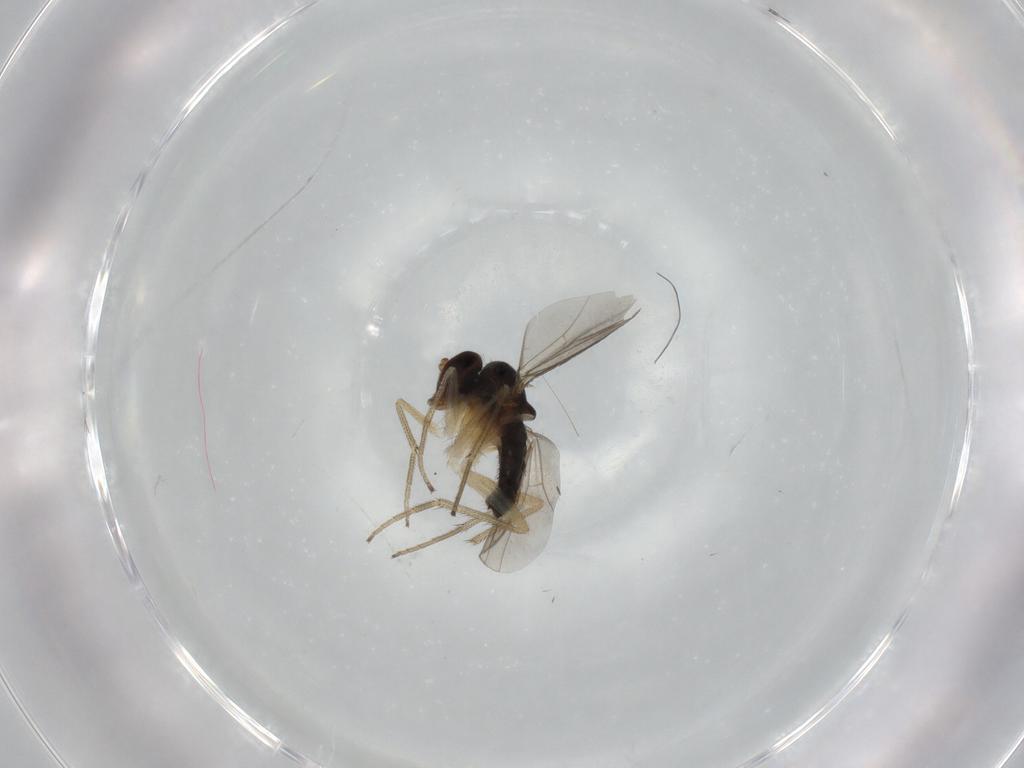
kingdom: Animalia
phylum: Arthropoda
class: Insecta
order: Diptera
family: Dolichopodidae
